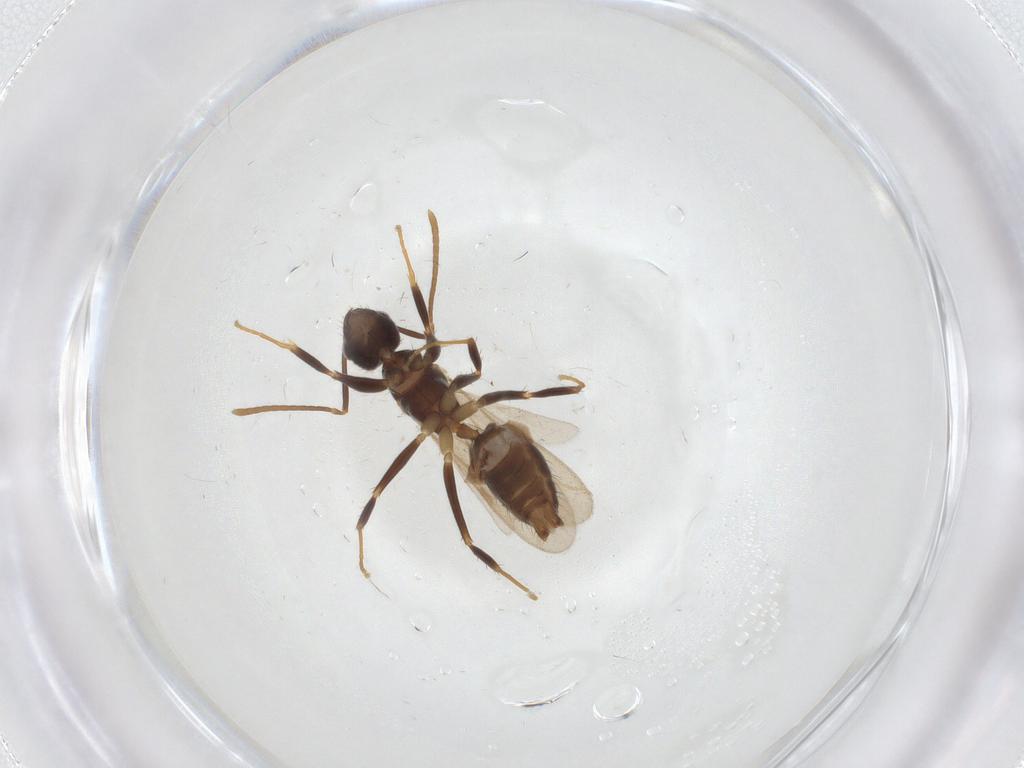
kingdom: Animalia
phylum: Arthropoda
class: Insecta
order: Hymenoptera
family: Formicidae
